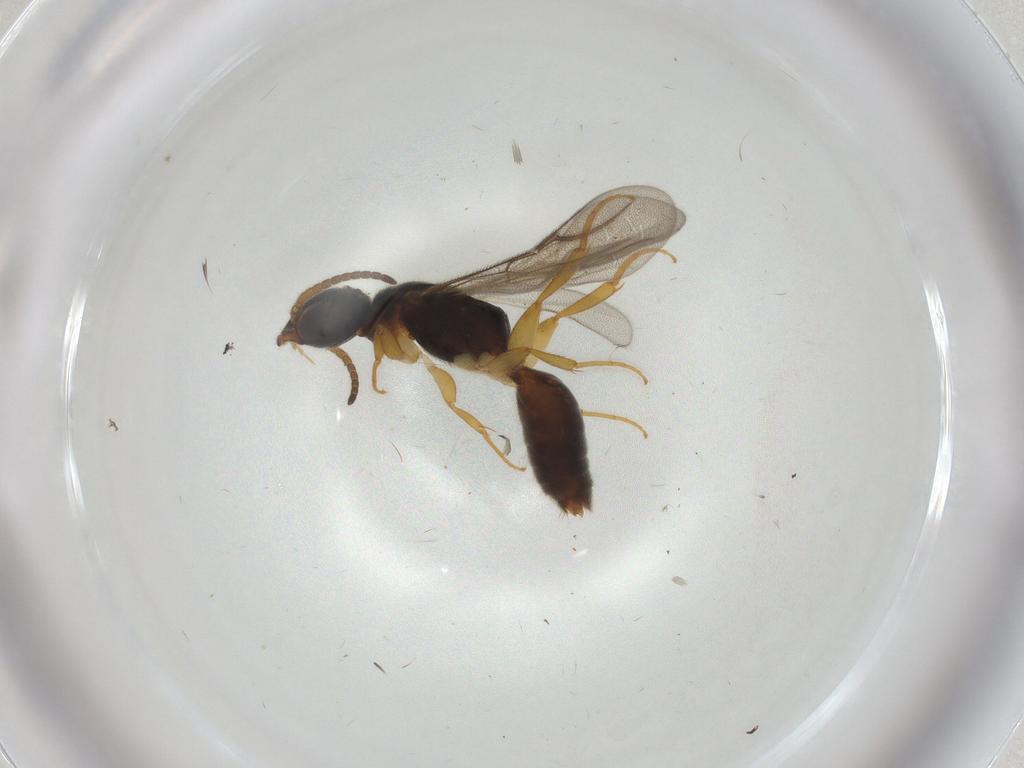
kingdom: Animalia
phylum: Arthropoda
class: Insecta
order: Hymenoptera
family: Bethylidae
